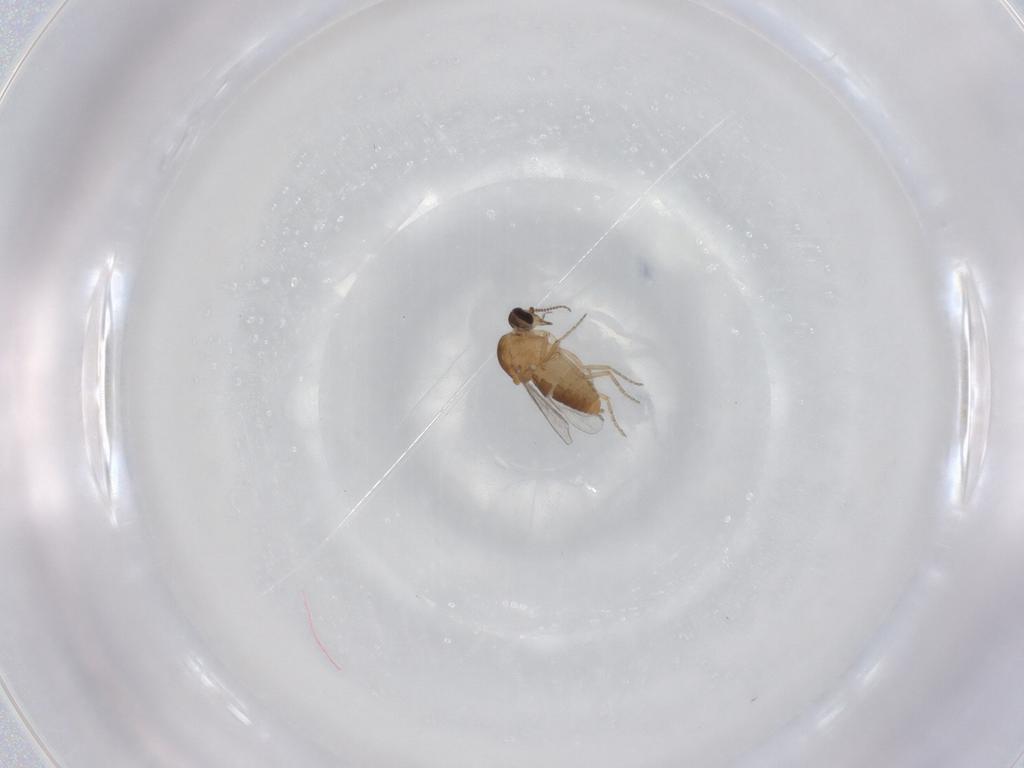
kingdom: Animalia
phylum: Arthropoda
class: Insecta
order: Diptera
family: Ceratopogonidae
